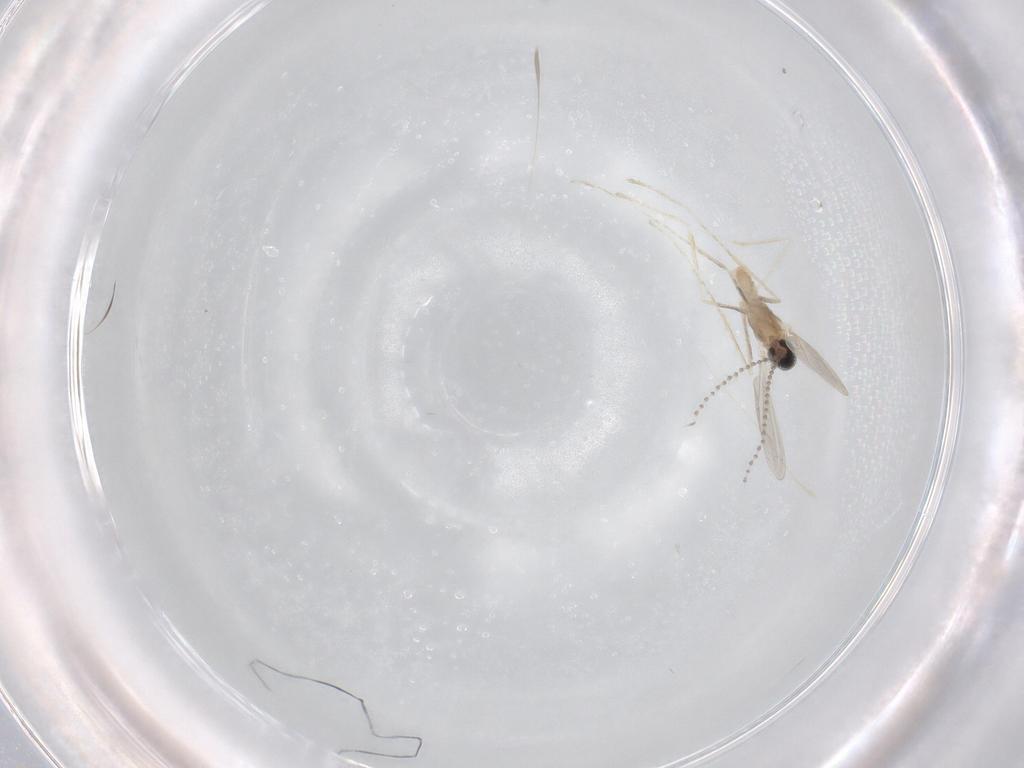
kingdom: Animalia
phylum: Arthropoda
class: Insecta
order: Diptera
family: Cecidomyiidae
